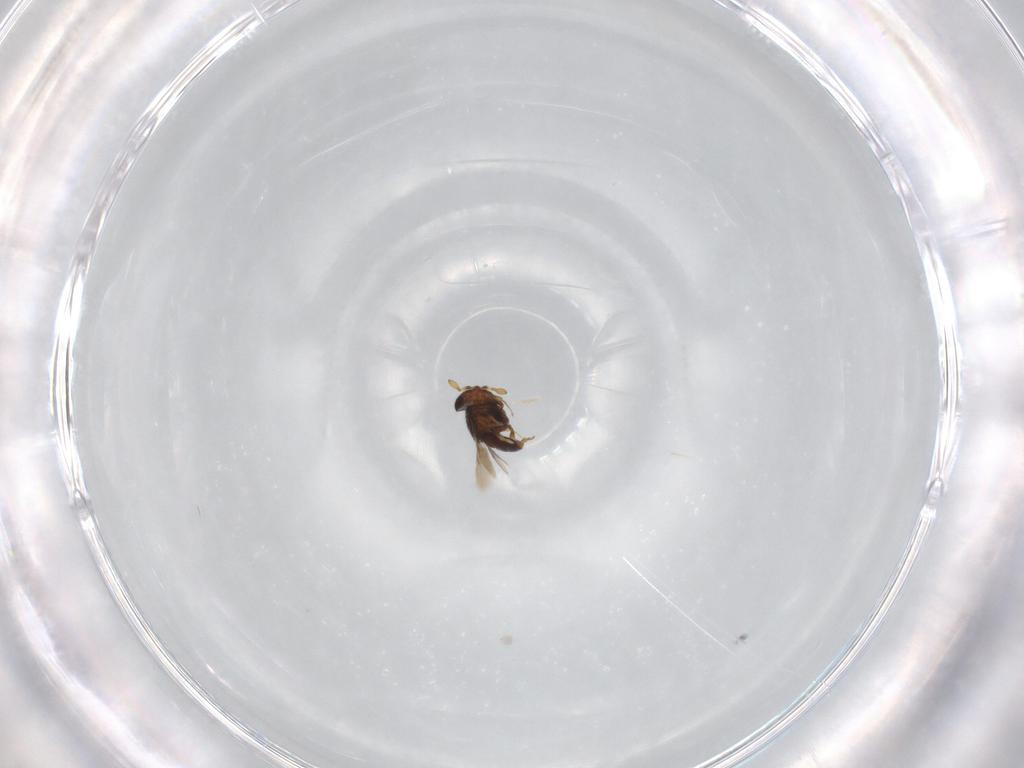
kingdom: Animalia
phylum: Arthropoda
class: Insecta
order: Hymenoptera
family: Scelionidae
